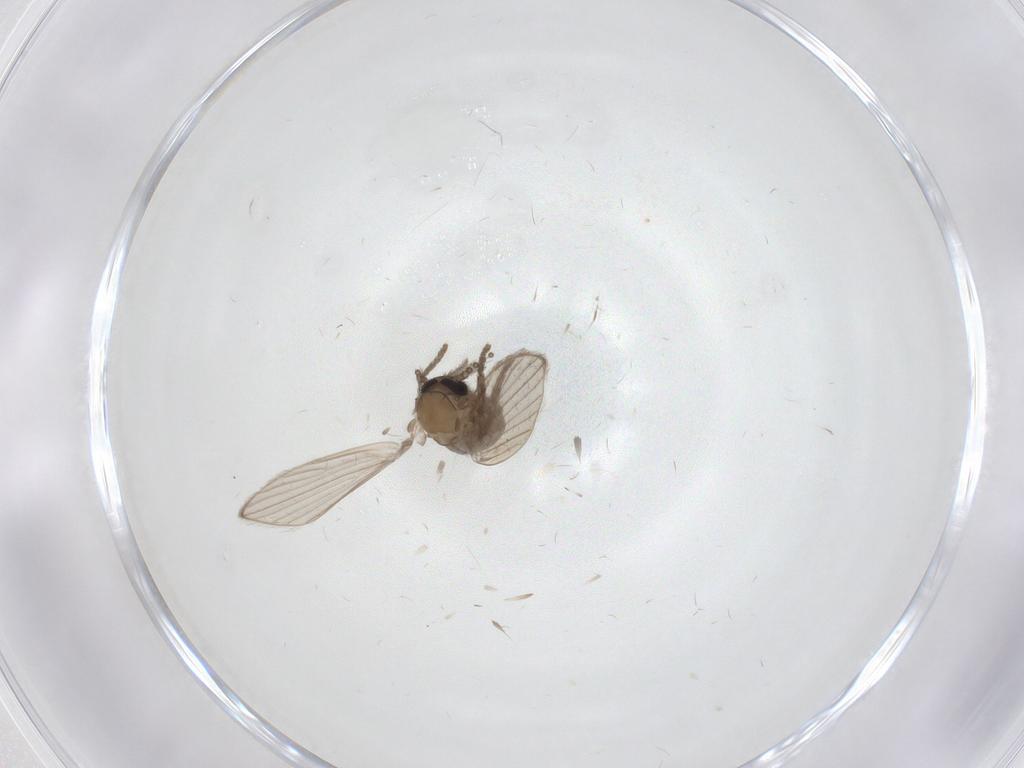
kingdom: Animalia
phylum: Arthropoda
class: Insecta
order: Diptera
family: Psychodidae
